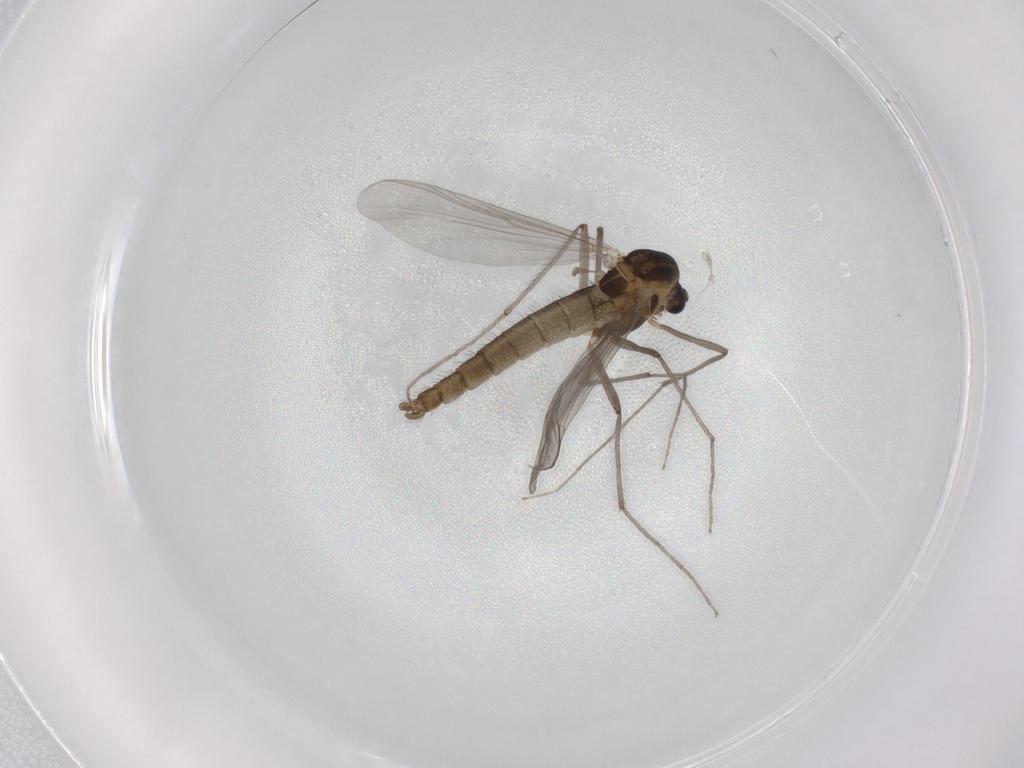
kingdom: Animalia
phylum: Arthropoda
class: Insecta
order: Diptera
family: Chironomidae
